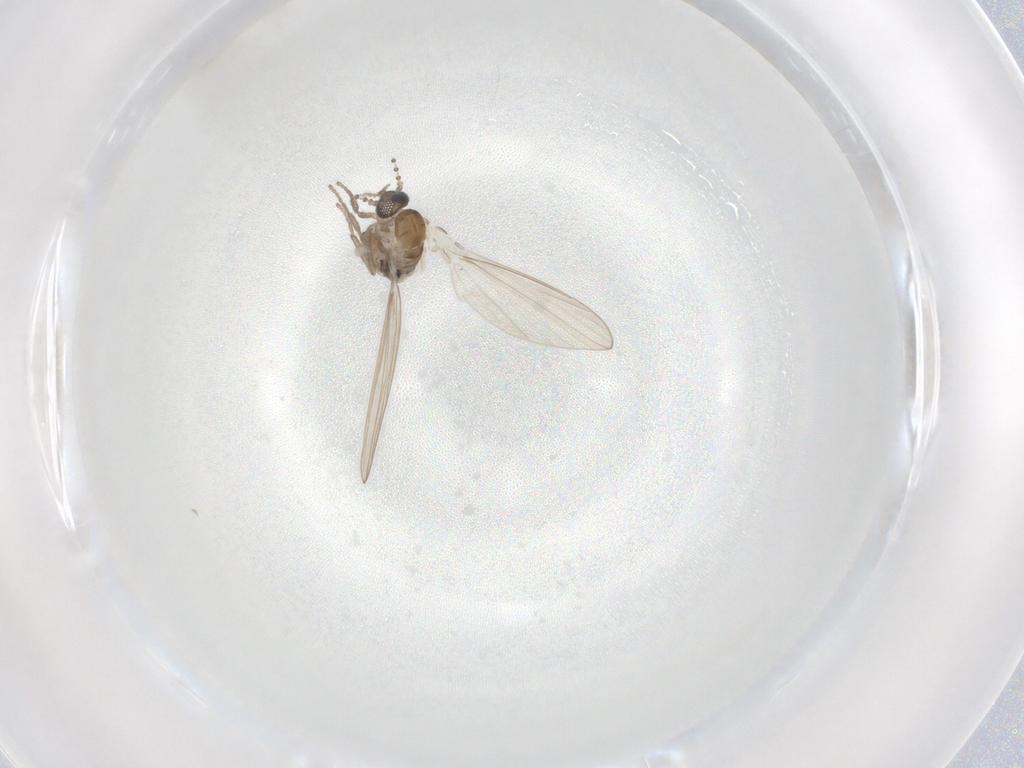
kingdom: Animalia
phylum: Arthropoda
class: Insecta
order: Diptera
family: Psychodidae
